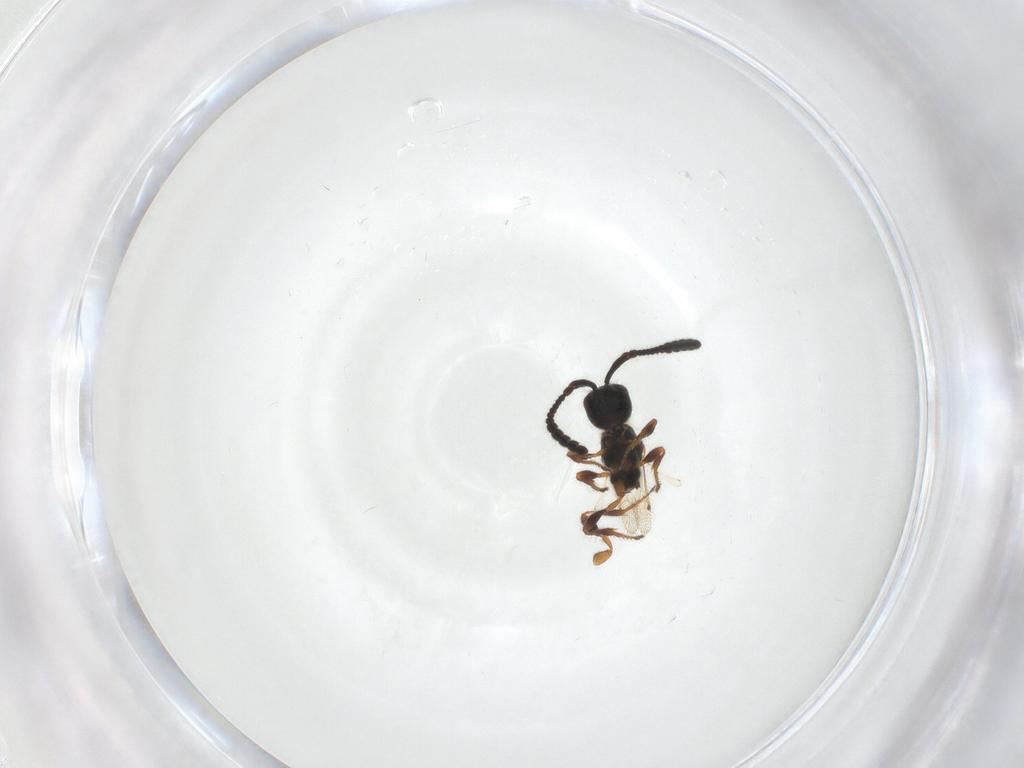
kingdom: Animalia
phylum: Arthropoda
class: Insecta
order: Hymenoptera
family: Diapriidae
